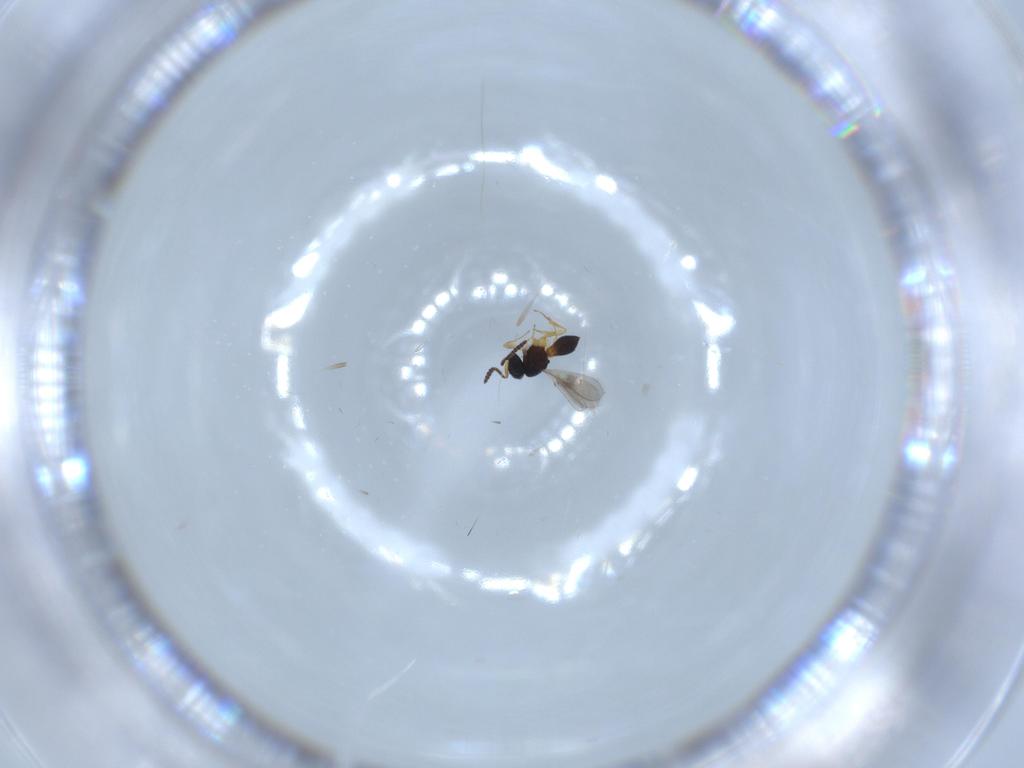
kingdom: Animalia
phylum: Arthropoda
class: Insecta
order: Hymenoptera
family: Scelionidae
